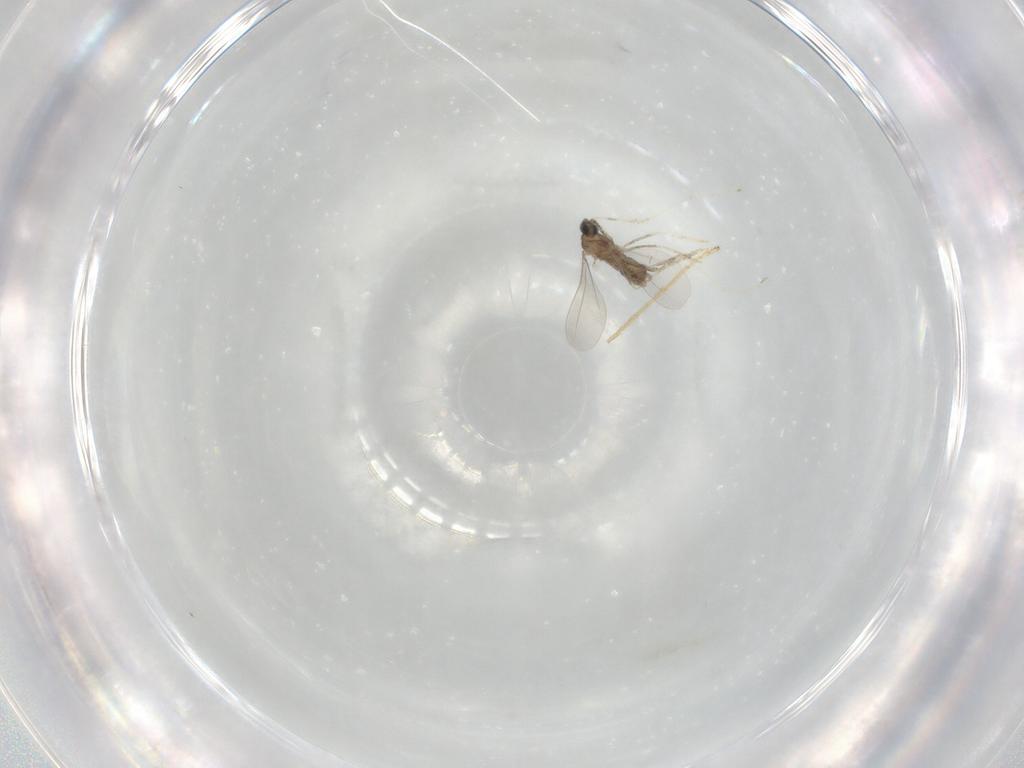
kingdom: Animalia
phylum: Arthropoda
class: Insecta
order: Diptera
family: Limoniidae
